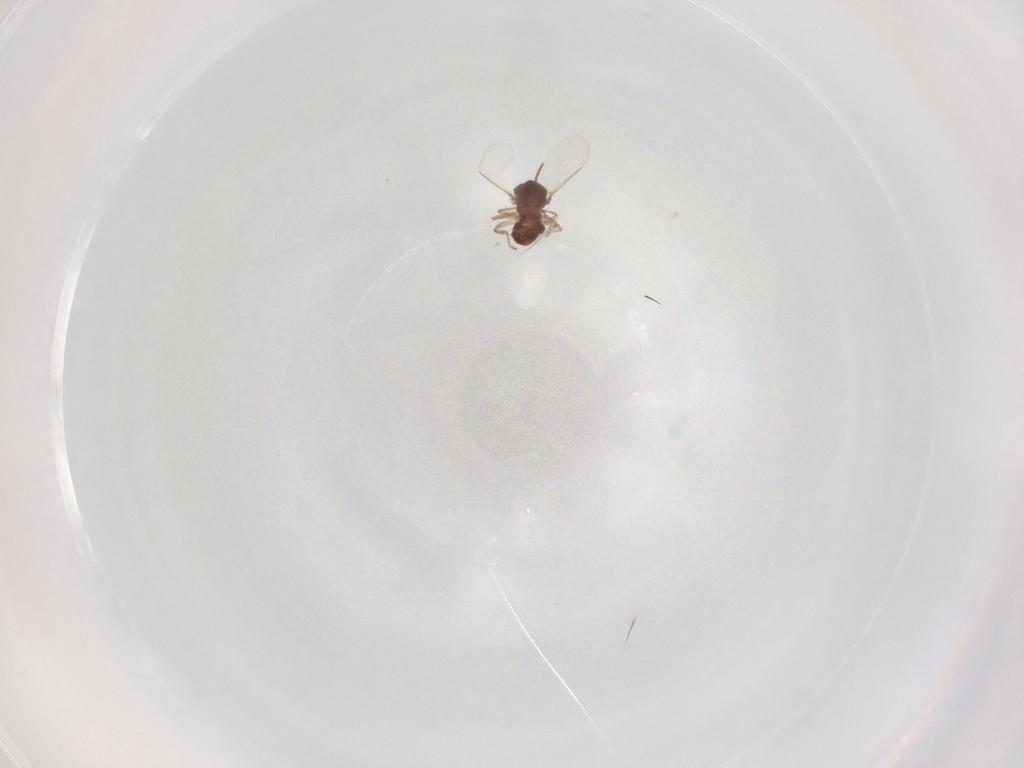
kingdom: Animalia
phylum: Arthropoda
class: Insecta
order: Diptera
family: Ceratopogonidae
